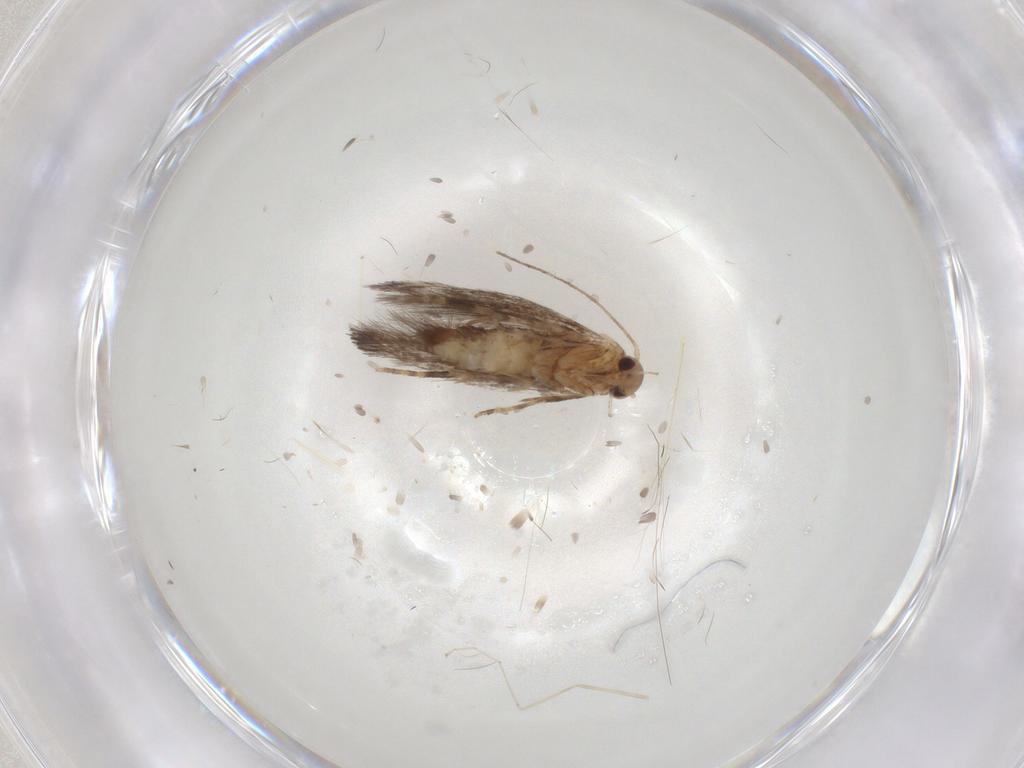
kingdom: Animalia
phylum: Arthropoda
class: Insecta
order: Lepidoptera
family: Elachistidae
